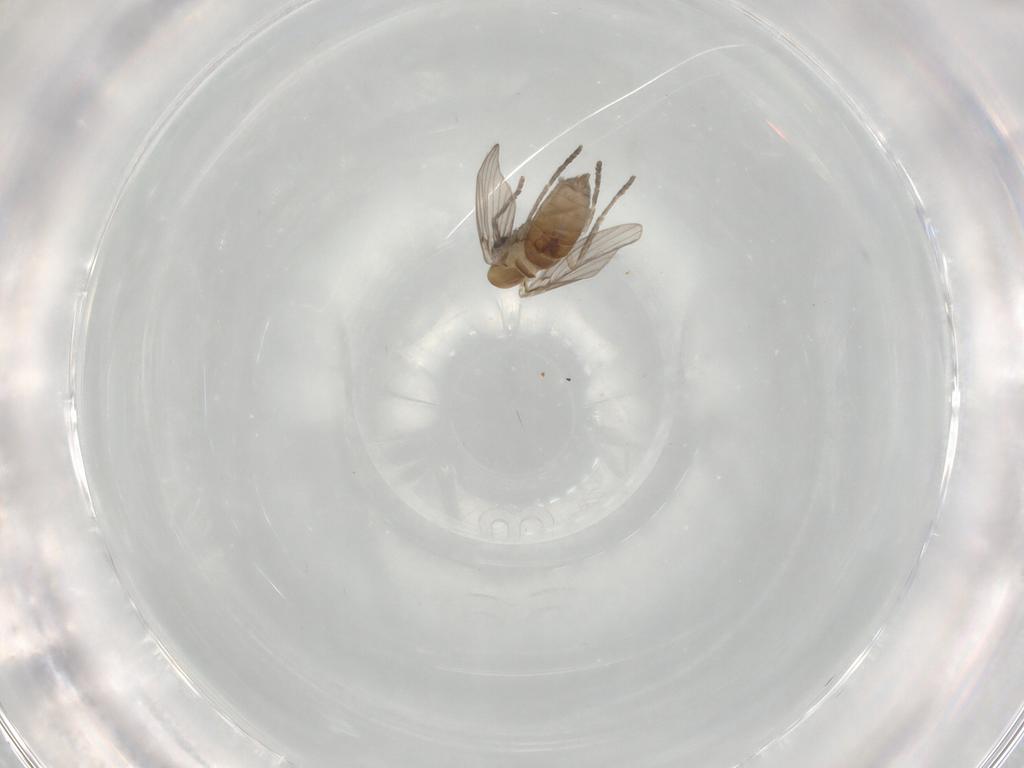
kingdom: Animalia
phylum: Arthropoda
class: Insecta
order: Diptera
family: Psychodidae
